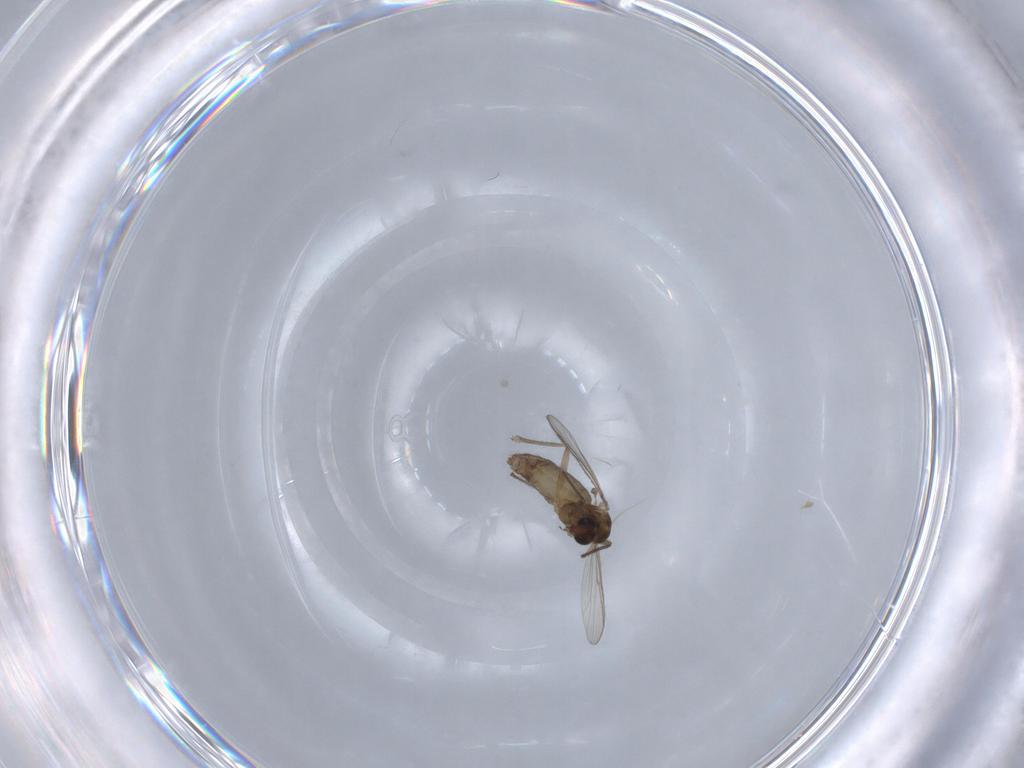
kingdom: Animalia
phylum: Arthropoda
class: Insecta
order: Diptera
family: Chironomidae
